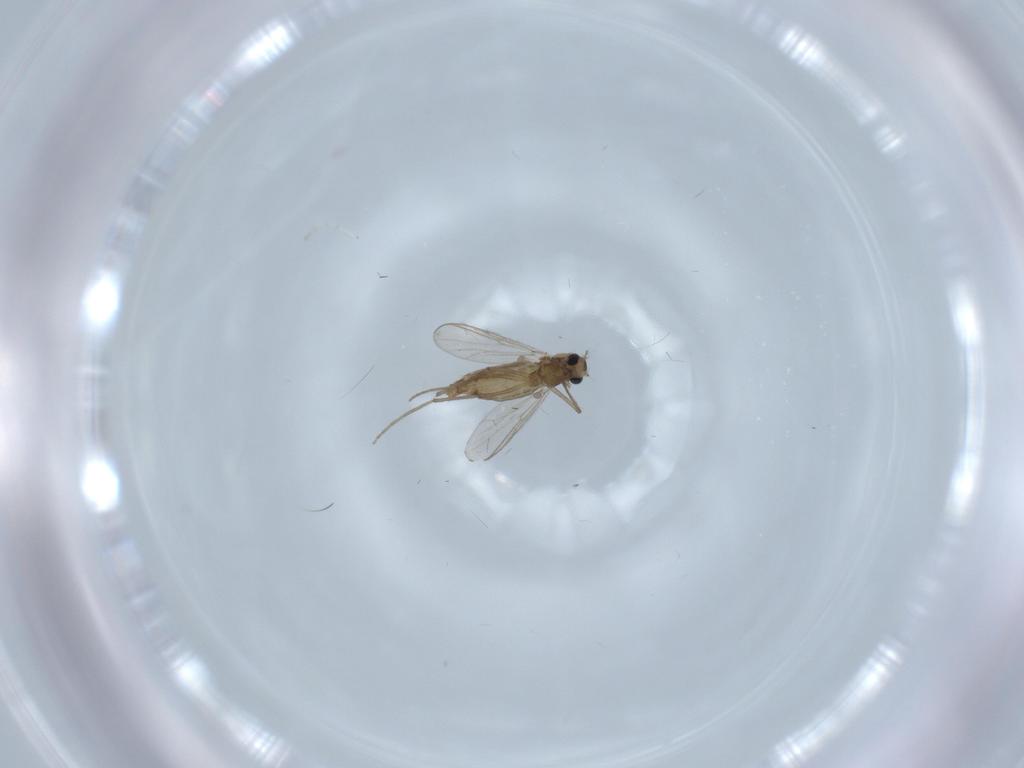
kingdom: Animalia
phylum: Arthropoda
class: Insecta
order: Diptera
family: Chironomidae
